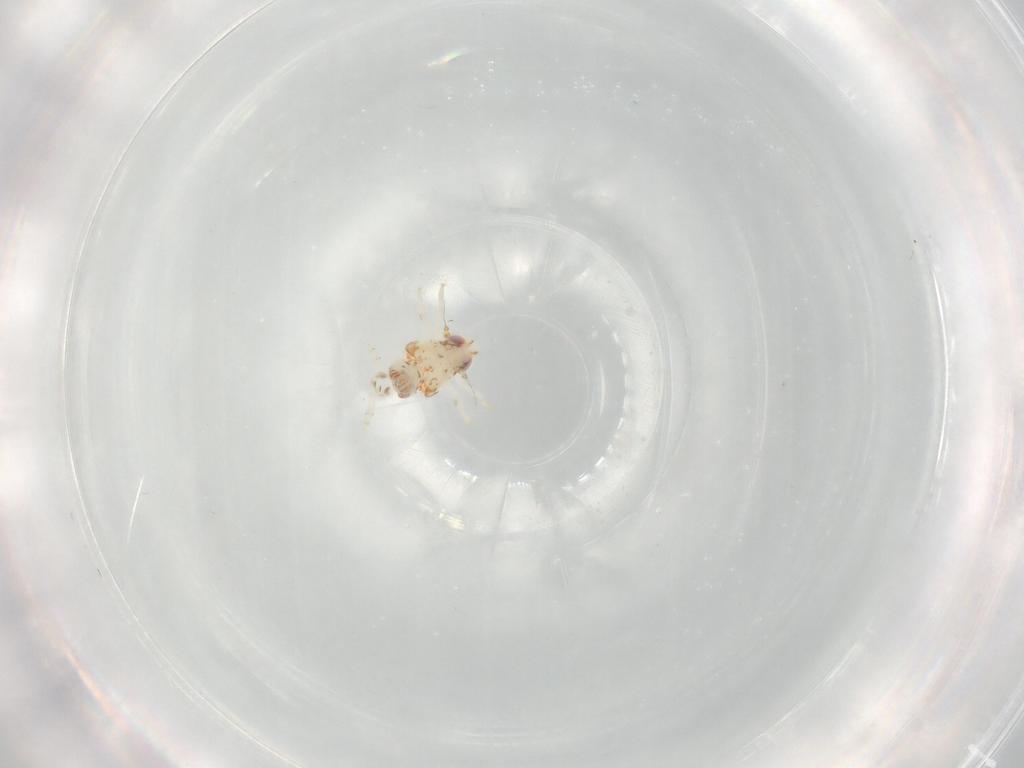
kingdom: Animalia
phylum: Arthropoda
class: Insecta
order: Hemiptera
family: Nogodinidae
